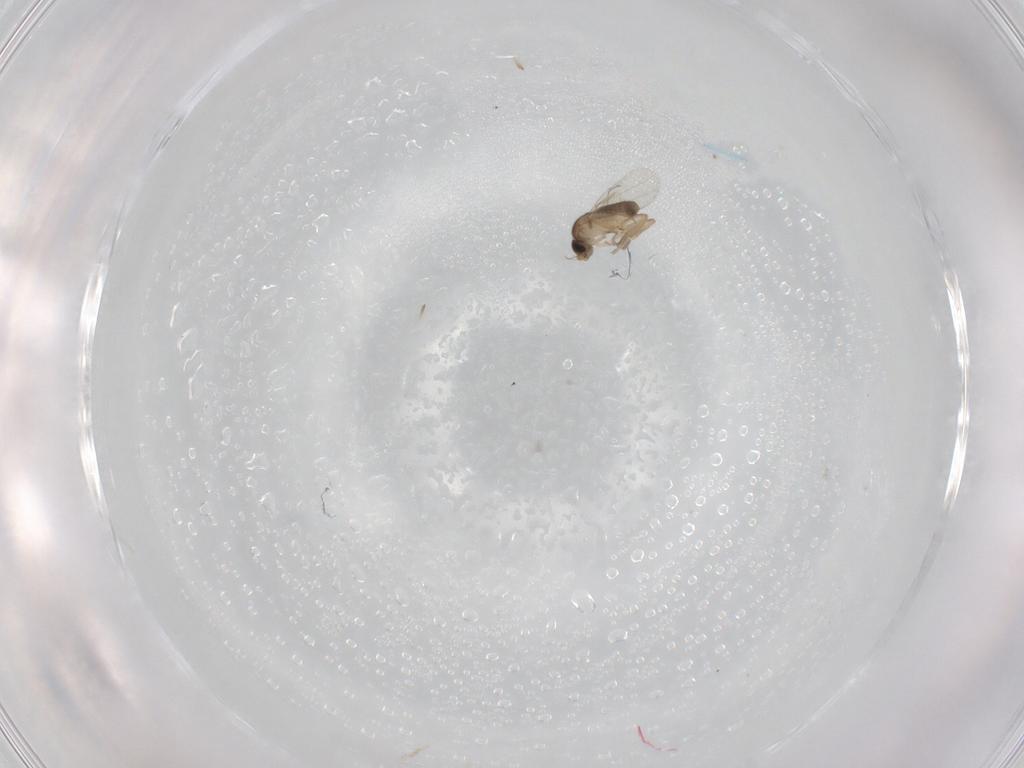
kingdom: Animalia
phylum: Arthropoda
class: Insecta
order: Diptera
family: Phoridae
